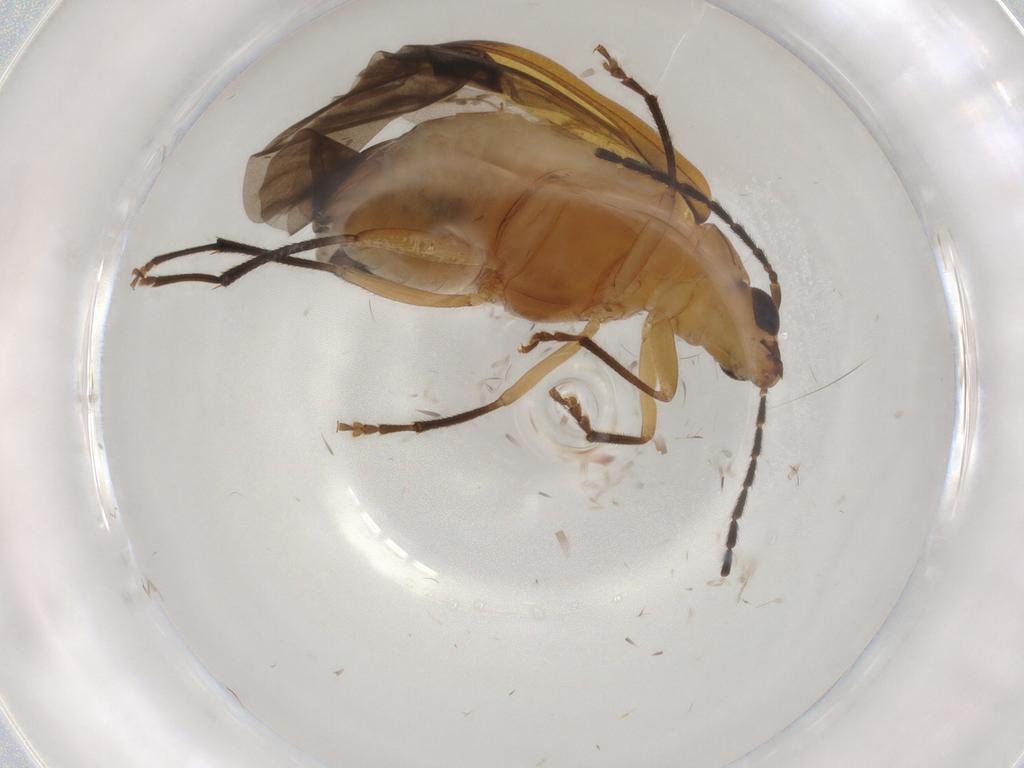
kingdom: Animalia
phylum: Arthropoda
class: Insecta
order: Coleoptera
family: Chrysomelidae
